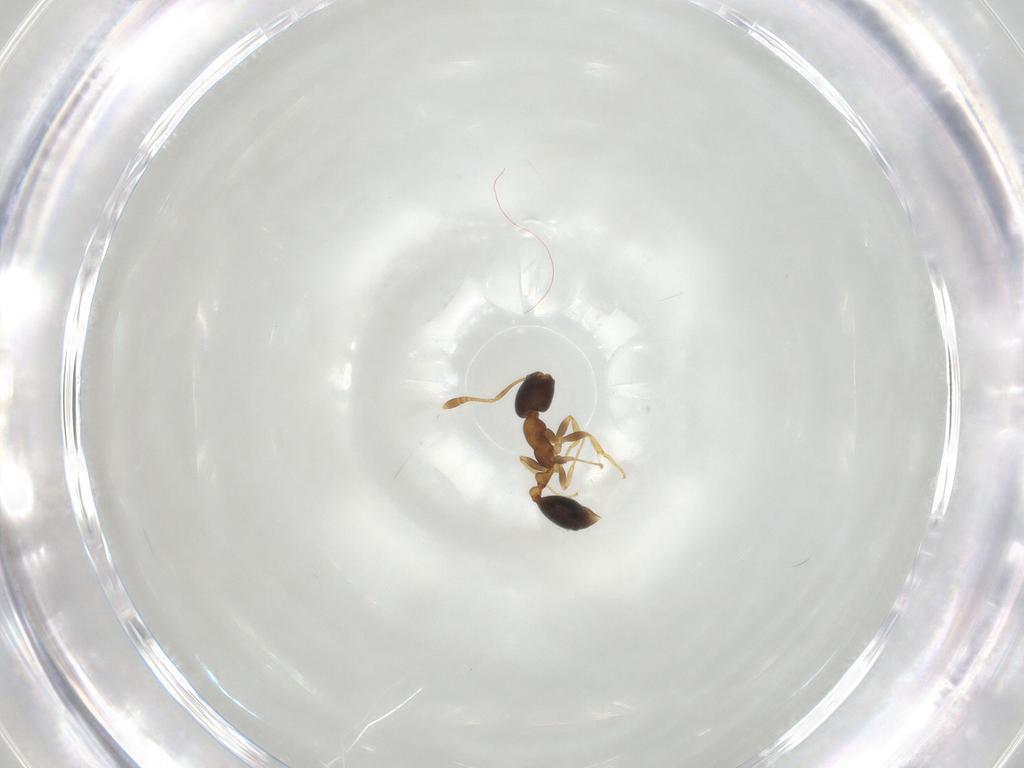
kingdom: Animalia
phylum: Arthropoda
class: Insecta
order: Hymenoptera
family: Formicidae
